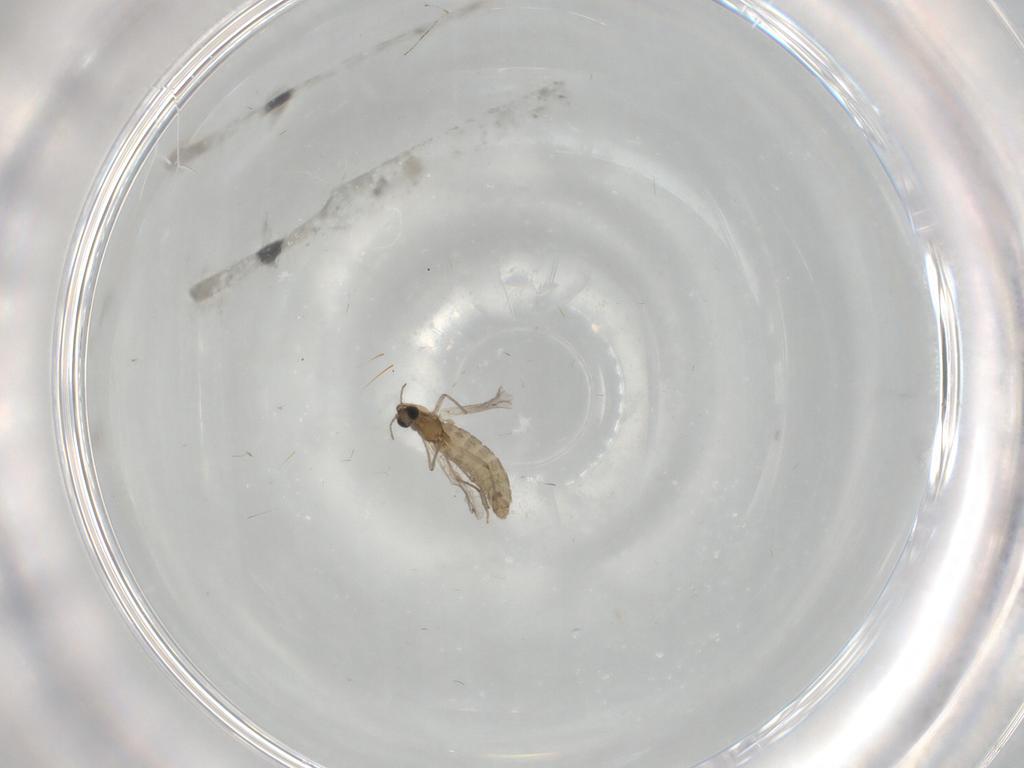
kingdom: Animalia
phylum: Arthropoda
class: Insecta
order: Diptera
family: Chironomidae
